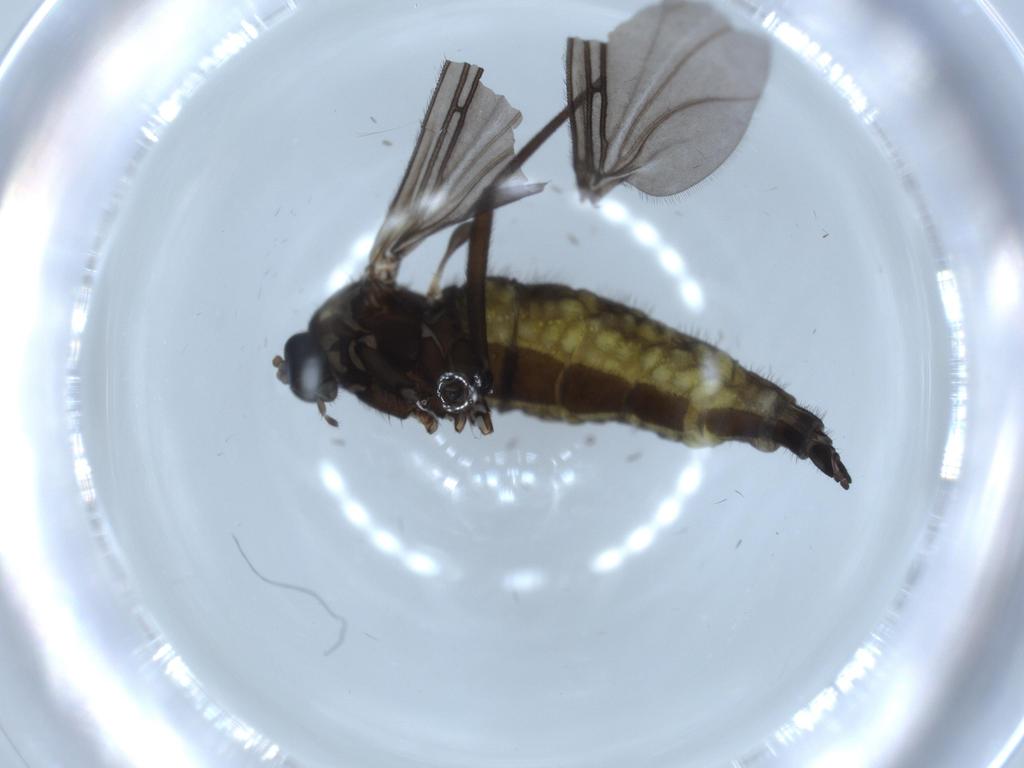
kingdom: Animalia
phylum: Arthropoda
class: Insecta
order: Diptera
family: Sciaridae
